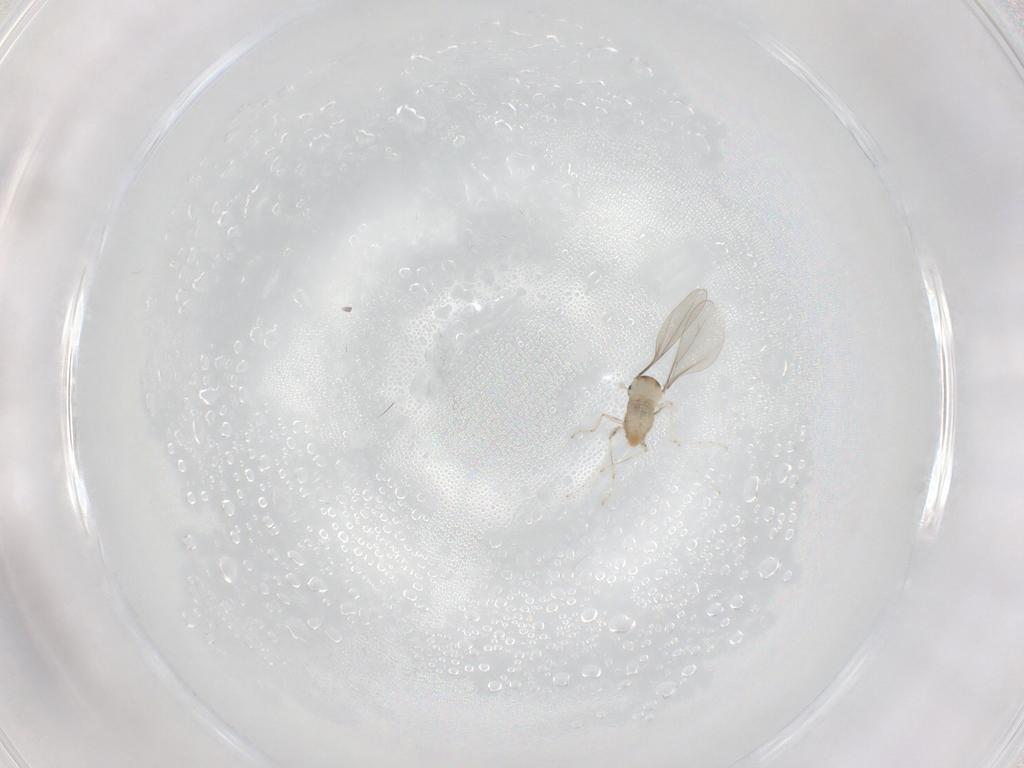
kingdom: Animalia
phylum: Arthropoda
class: Insecta
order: Diptera
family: Cecidomyiidae
